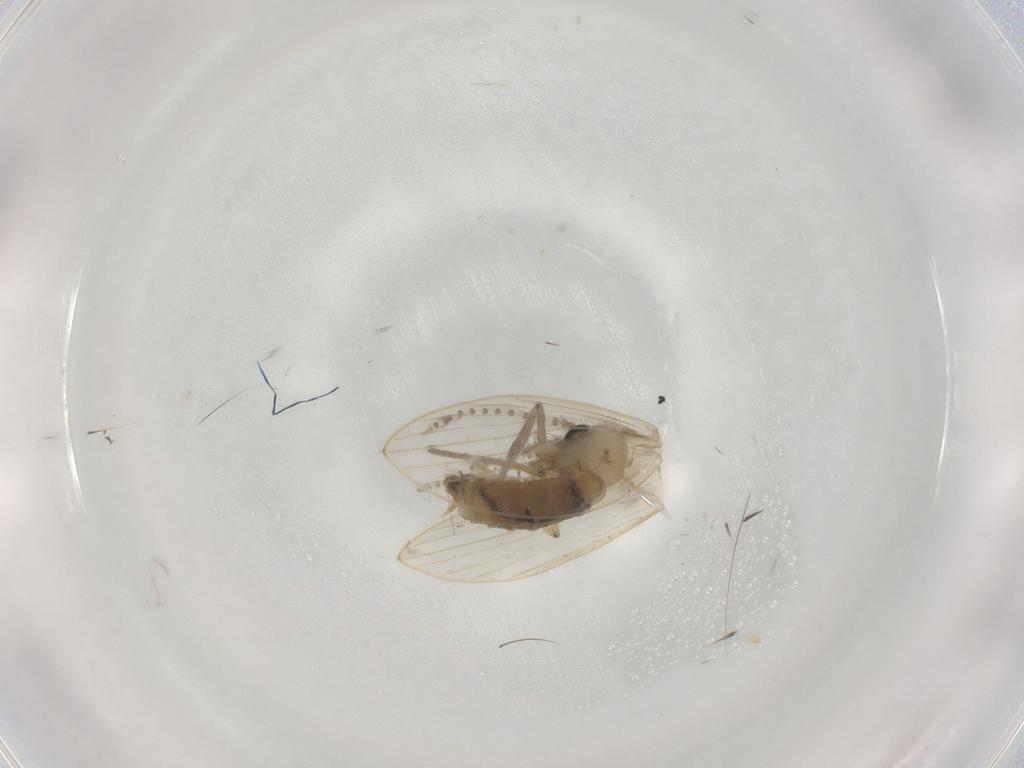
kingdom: Animalia
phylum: Arthropoda
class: Insecta
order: Diptera
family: Psychodidae
